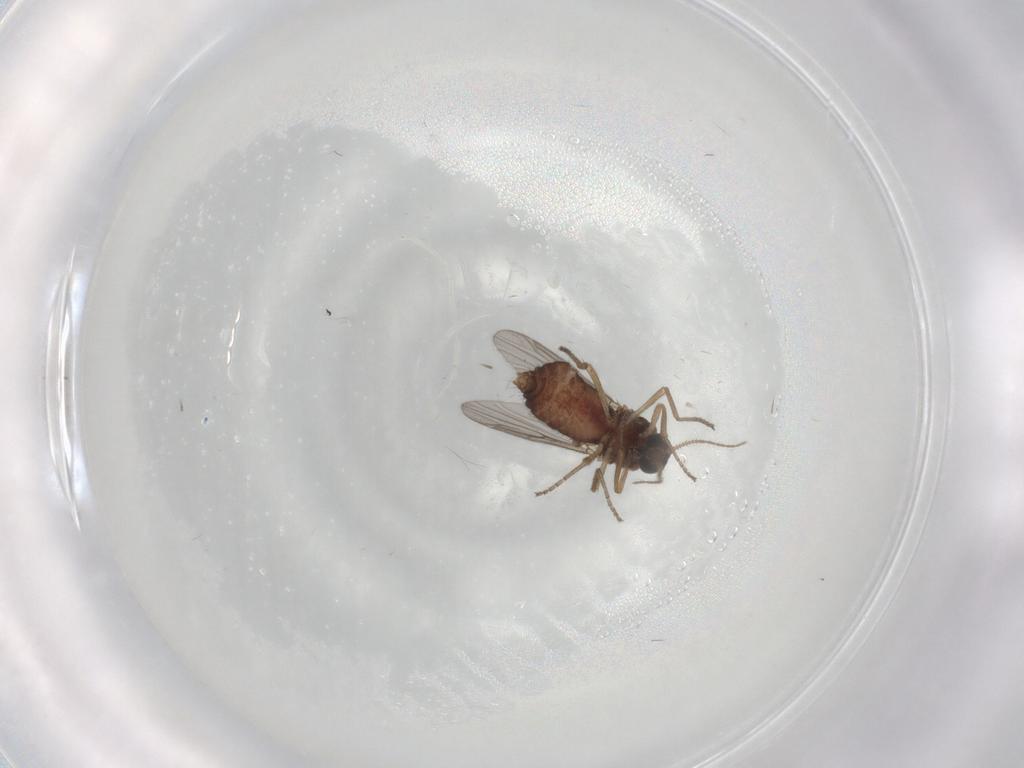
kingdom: Animalia
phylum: Arthropoda
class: Insecta
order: Diptera
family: Ceratopogonidae
